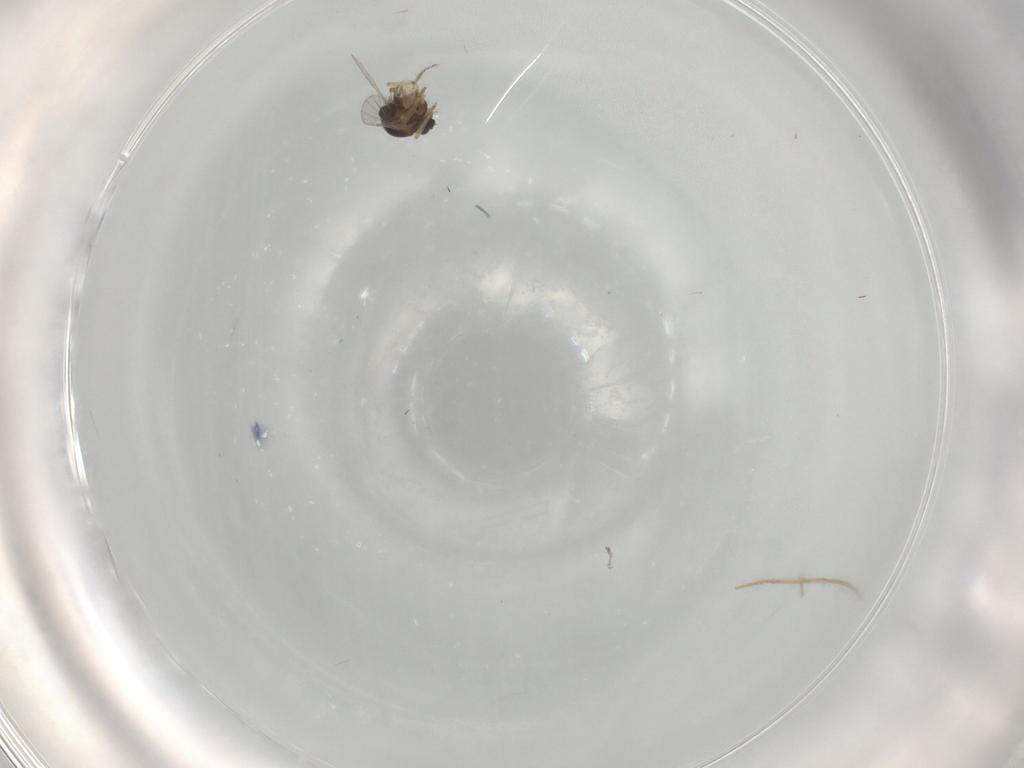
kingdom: Animalia
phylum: Arthropoda
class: Insecta
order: Diptera
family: Ceratopogonidae
